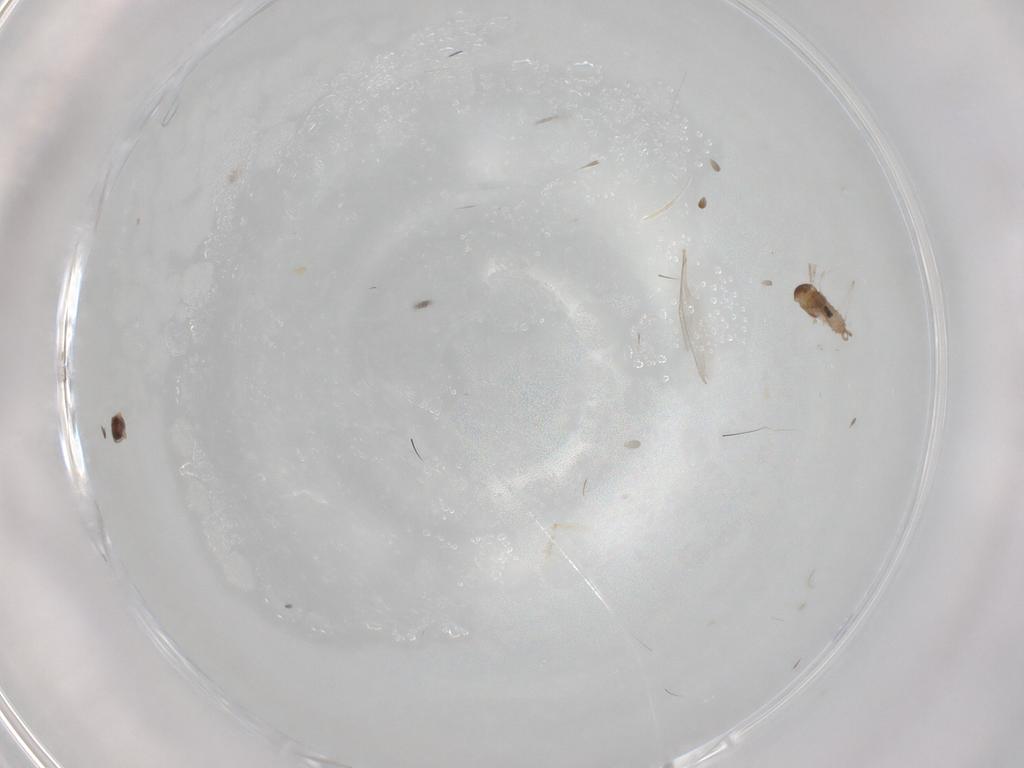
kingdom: Animalia
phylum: Arthropoda
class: Insecta
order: Diptera
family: Cecidomyiidae
